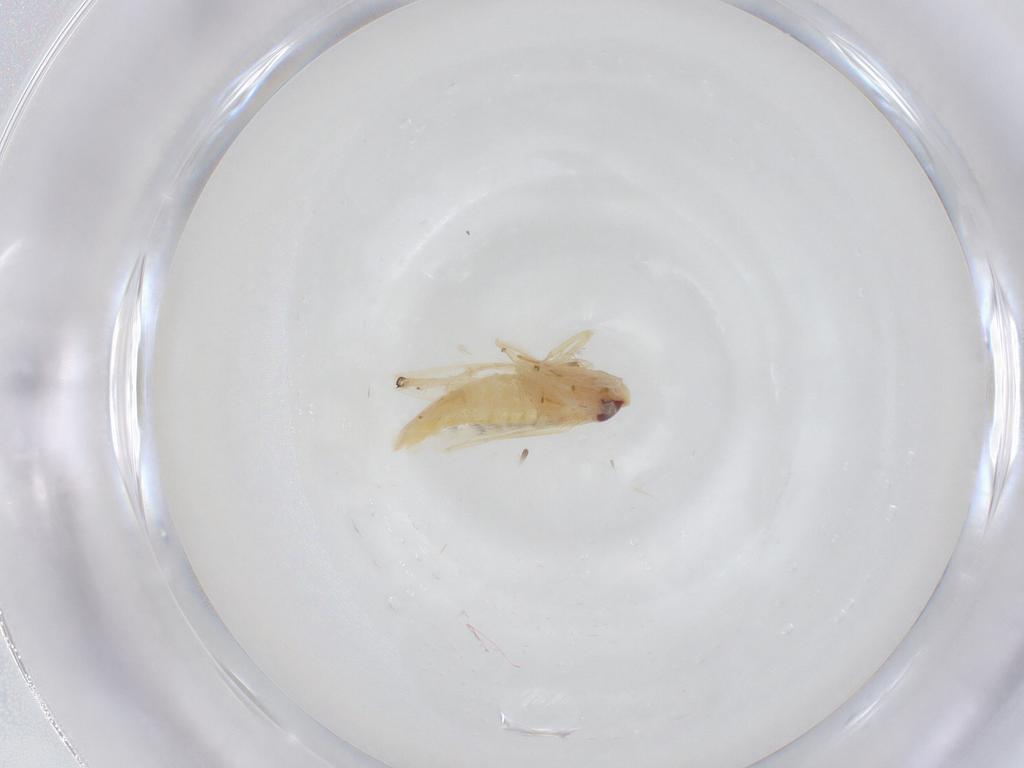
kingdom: Animalia
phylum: Arthropoda
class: Insecta
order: Hemiptera
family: Cicadellidae
